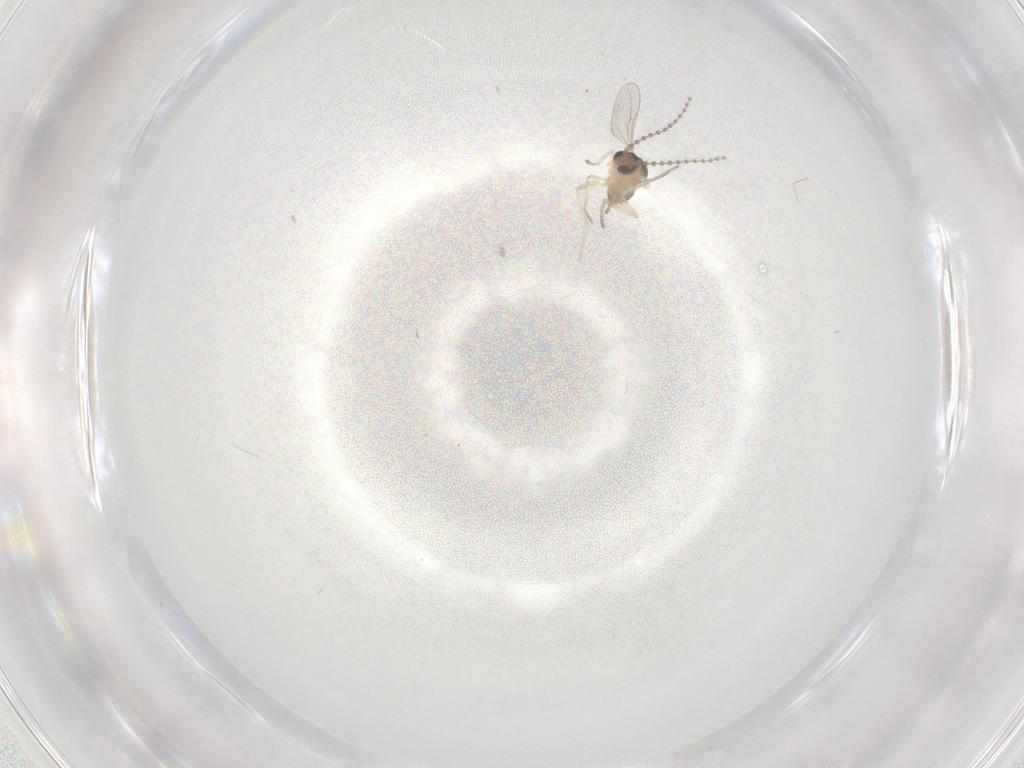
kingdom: Animalia
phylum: Arthropoda
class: Insecta
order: Diptera
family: Cecidomyiidae
